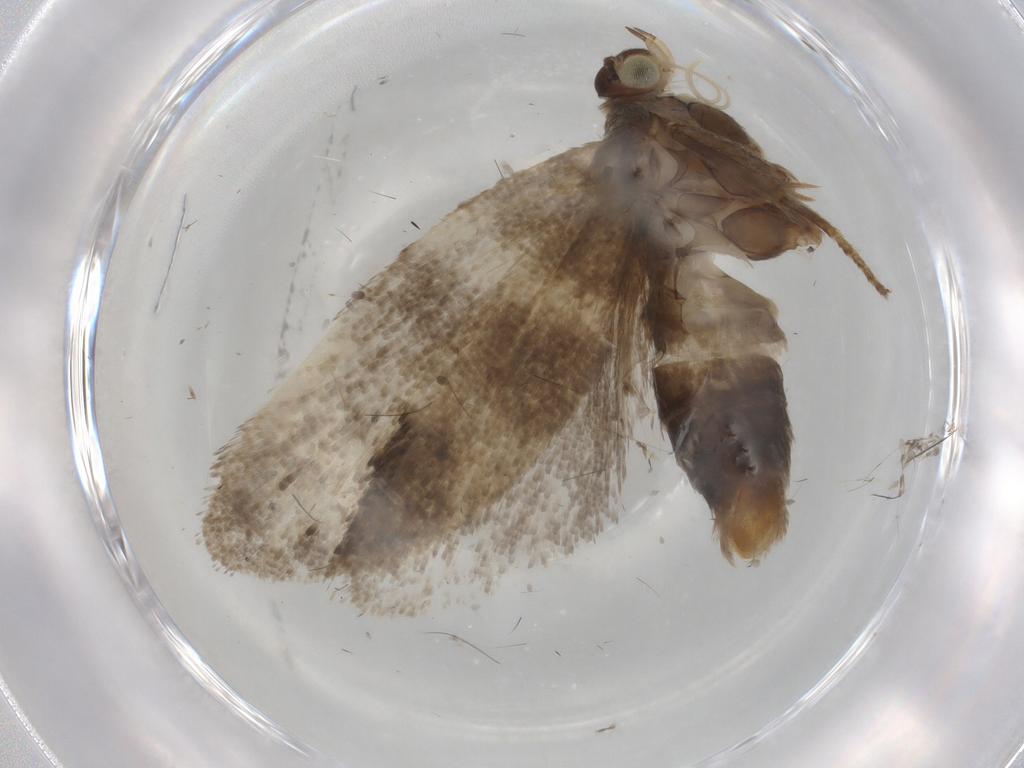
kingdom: Animalia
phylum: Arthropoda
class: Insecta
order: Lepidoptera
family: Choreutidae
